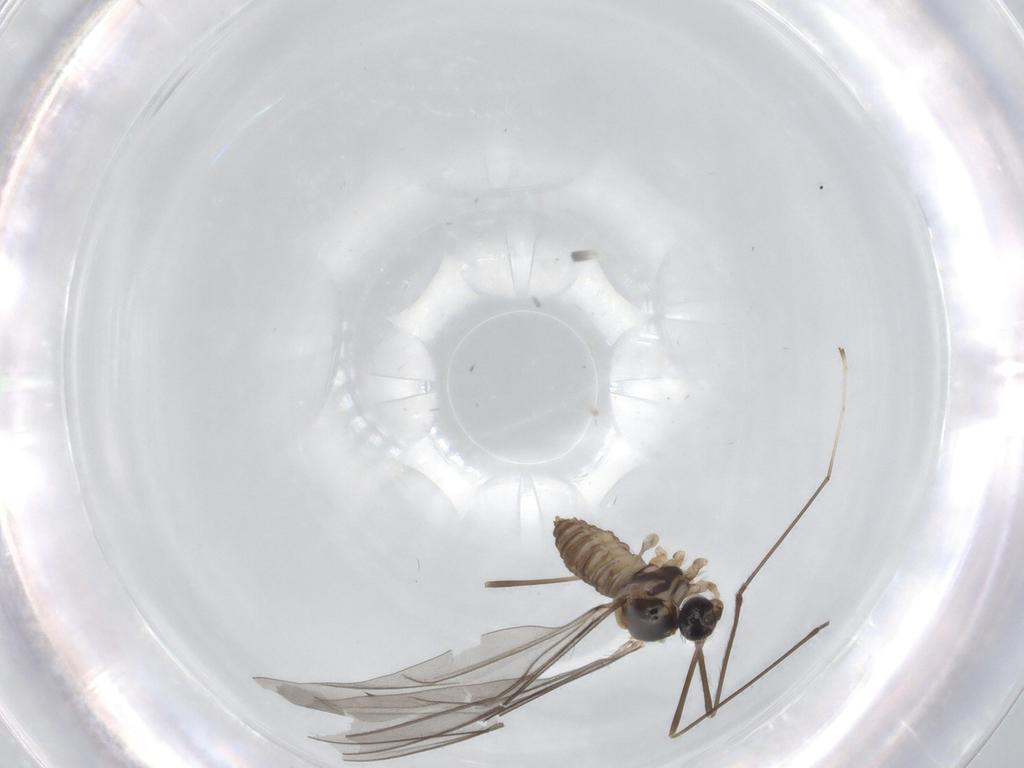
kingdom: Animalia
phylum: Arthropoda
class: Insecta
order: Diptera
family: Cecidomyiidae
